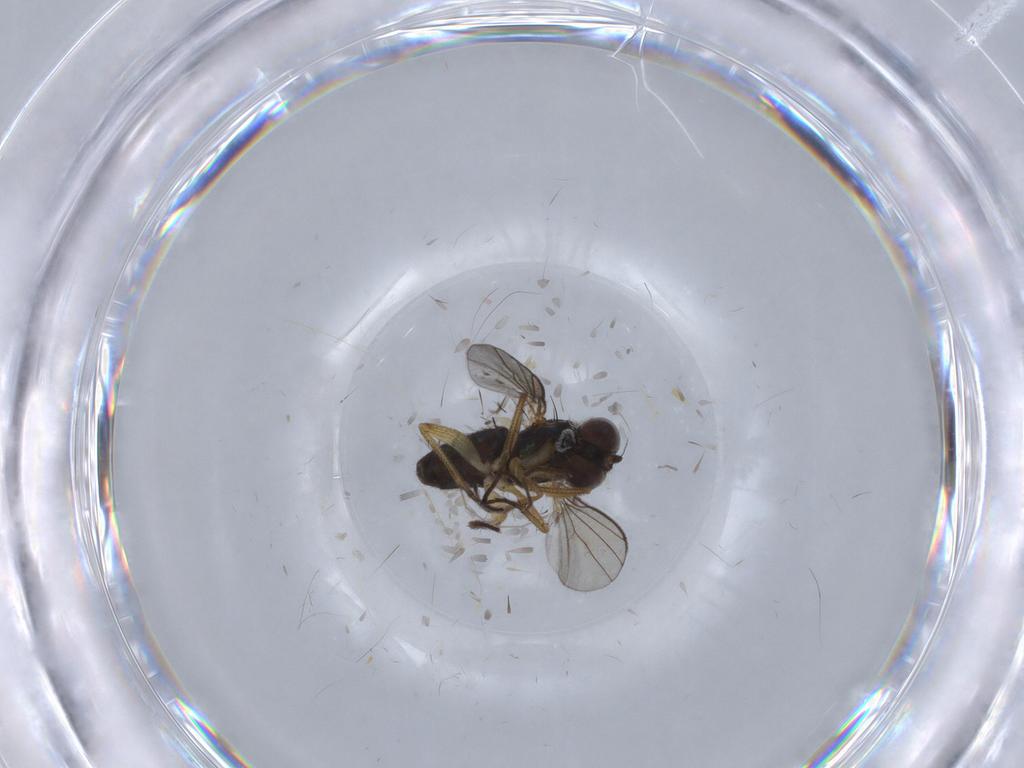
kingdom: Animalia
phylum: Arthropoda
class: Insecta
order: Diptera
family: Chironomidae
